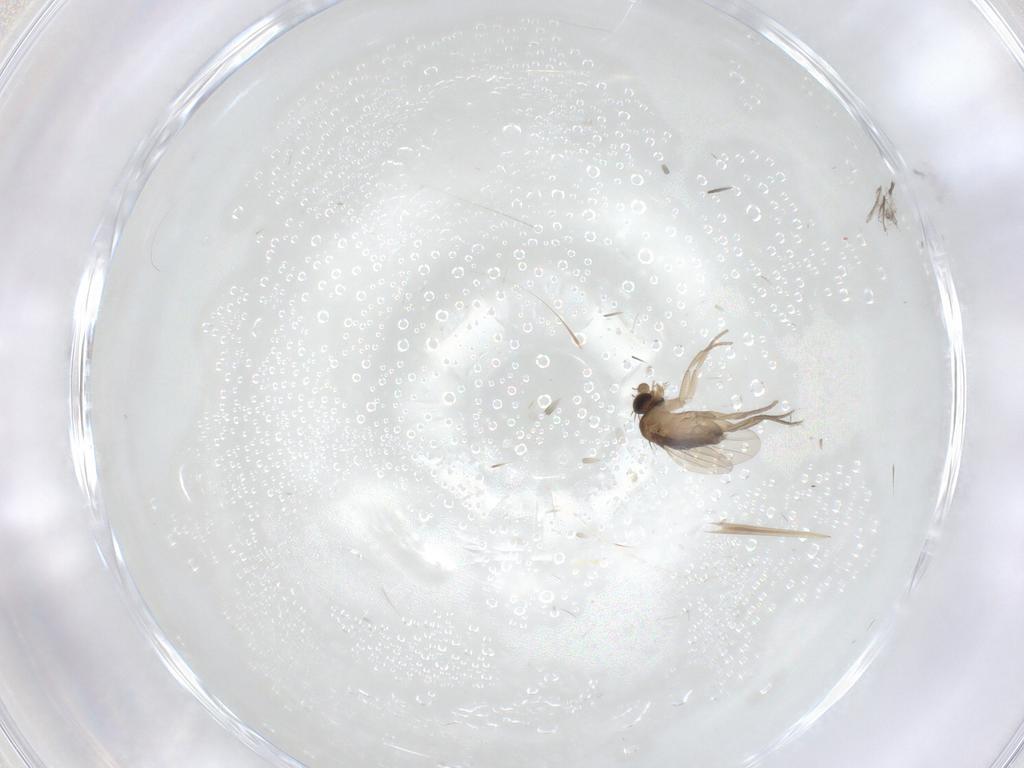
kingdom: Animalia
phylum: Arthropoda
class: Insecta
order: Diptera
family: Phoridae
